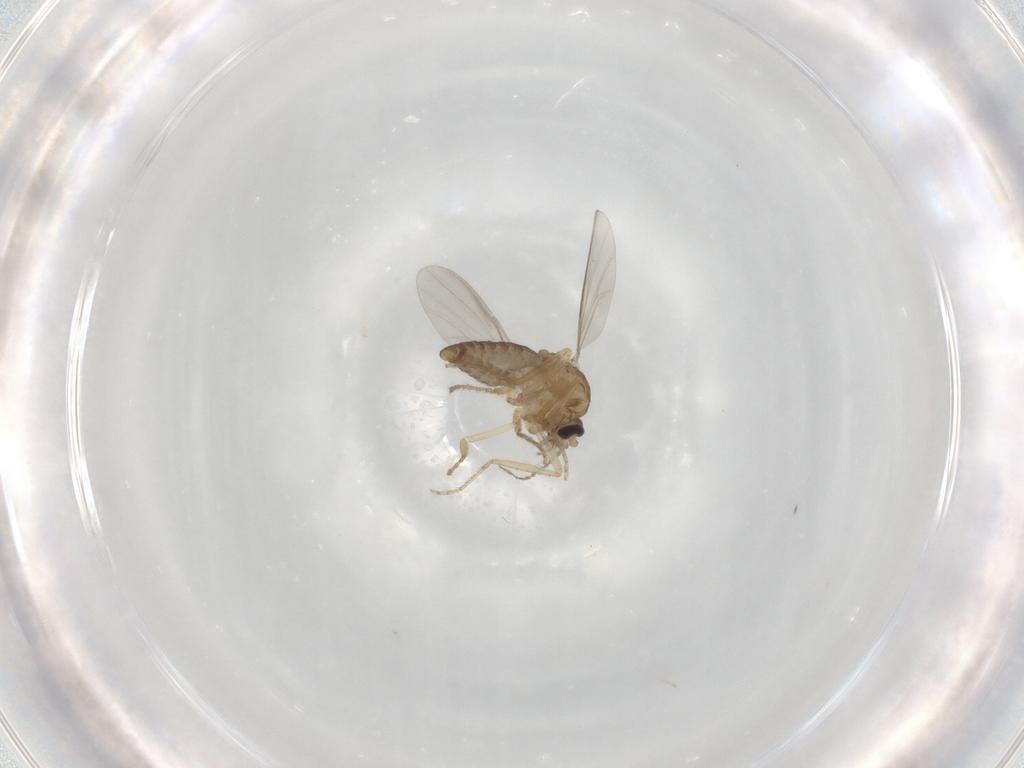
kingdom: Animalia
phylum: Arthropoda
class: Insecta
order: Diptera
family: Ceratopogonidae
